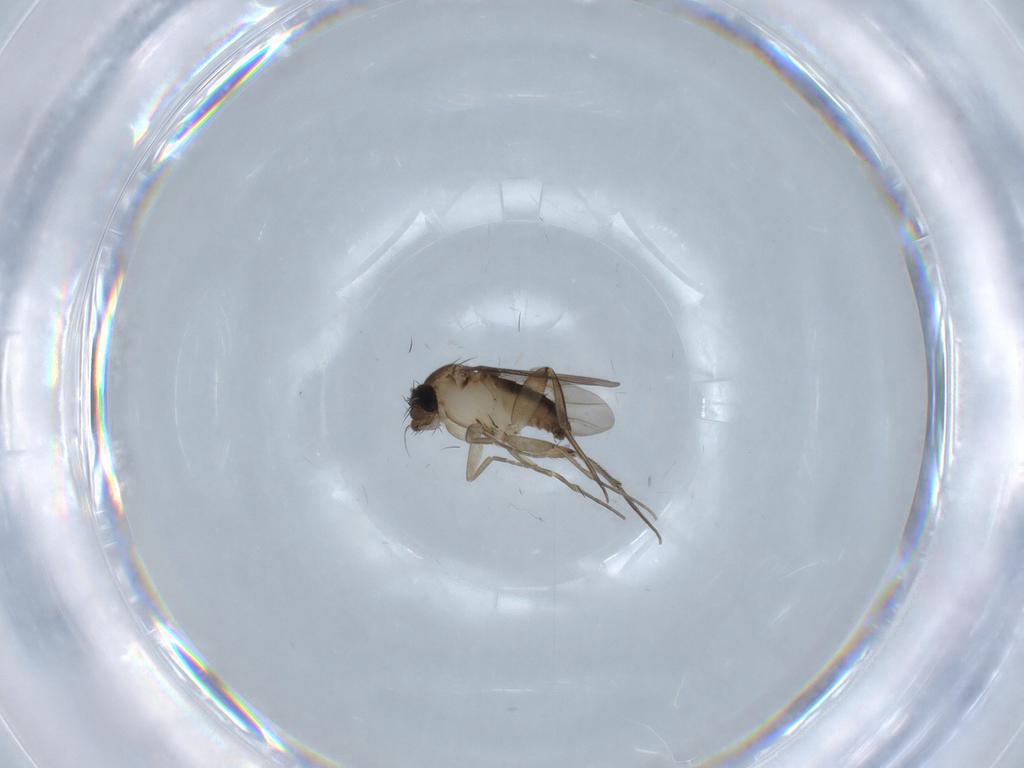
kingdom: Animalia
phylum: Arthropoda
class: Insecta
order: Diptera
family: Phoridae
